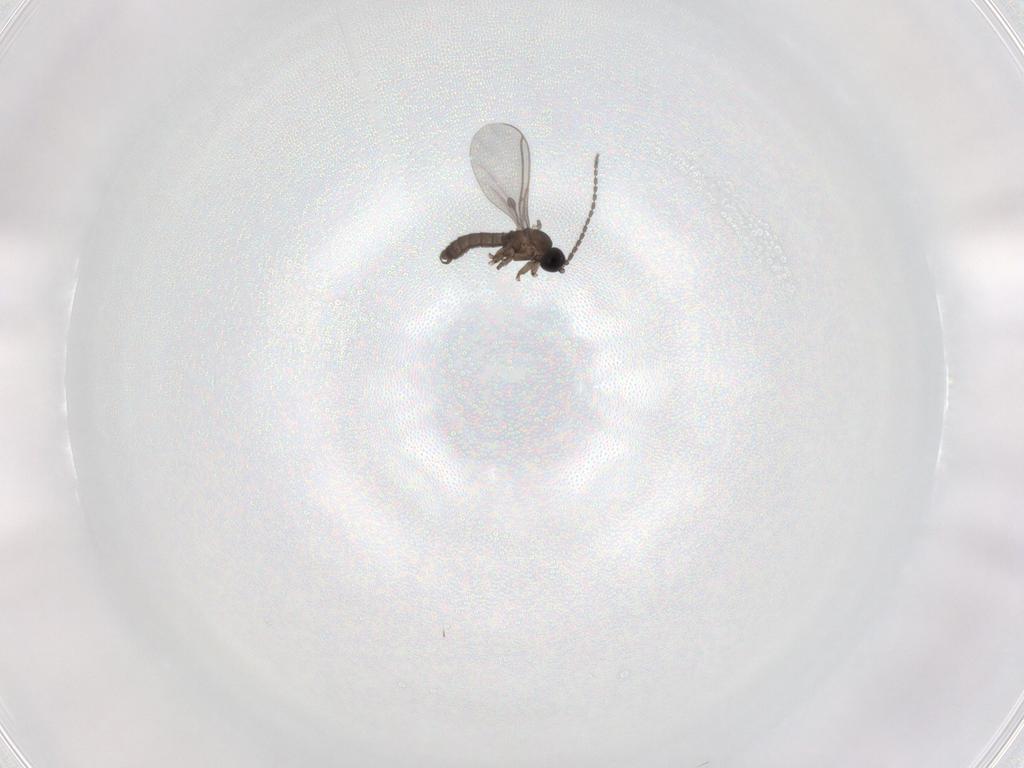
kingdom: Animalia
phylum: Arthropoda
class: Insecta
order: Diptera
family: Sciaridae
